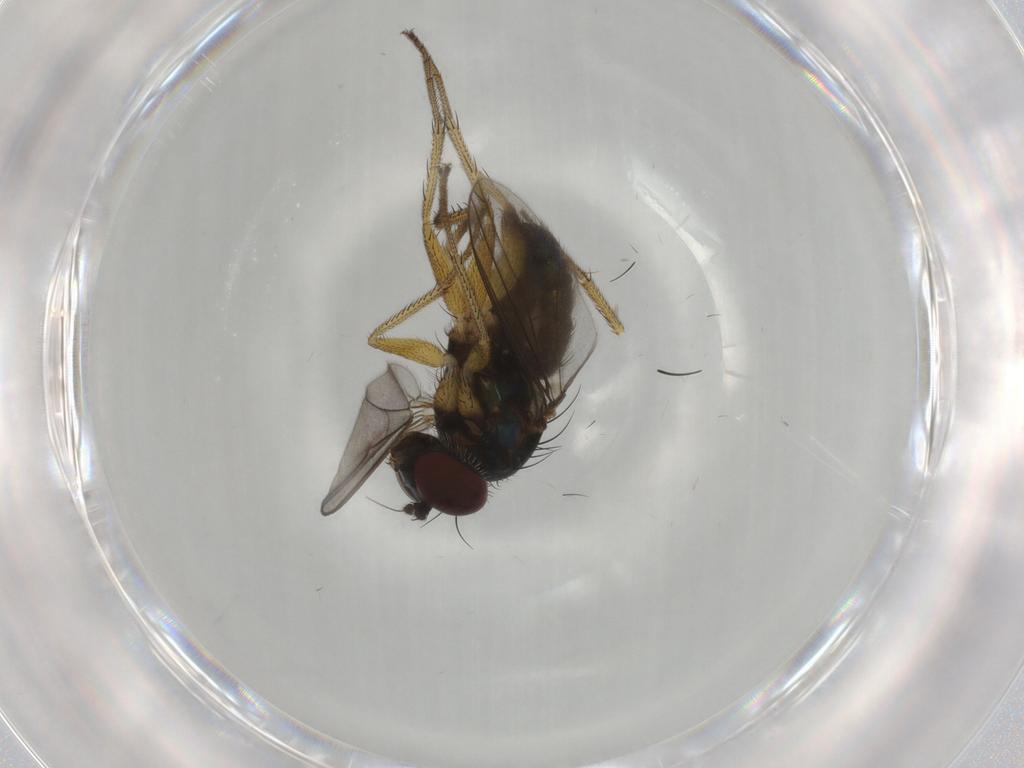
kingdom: Animalia
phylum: Arthropoda
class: Insecta
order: Diptera
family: Dolichopodidae
